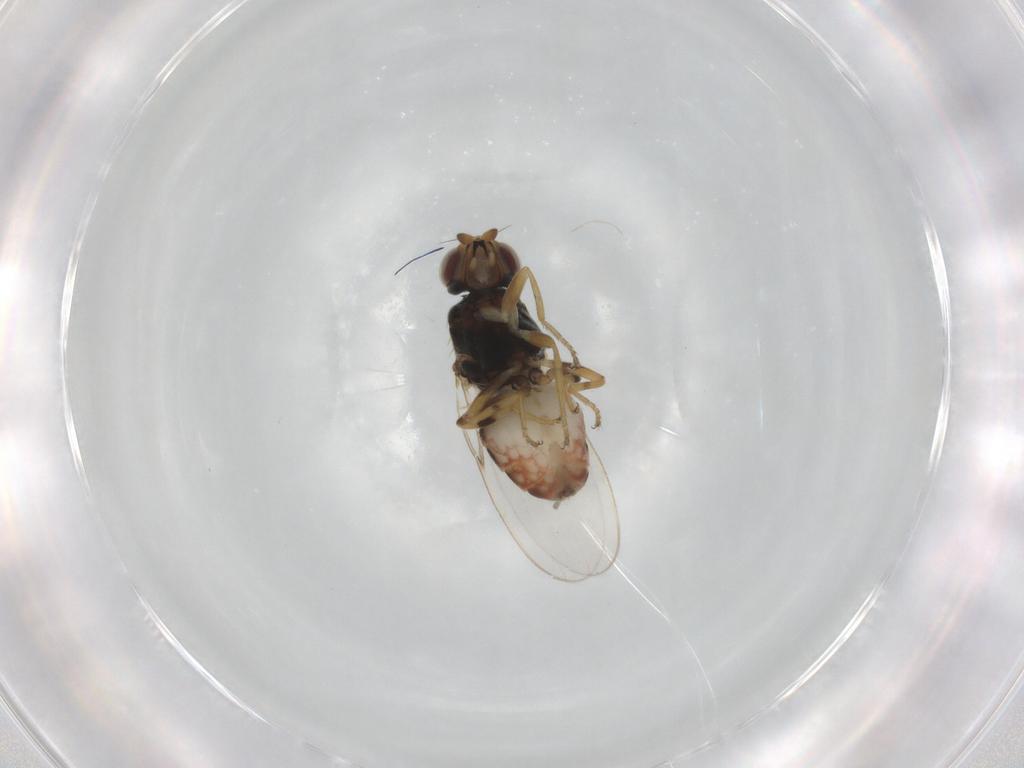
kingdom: Animalia
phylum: Arthropoda
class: Insecta
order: Diptera
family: Chloropidae
